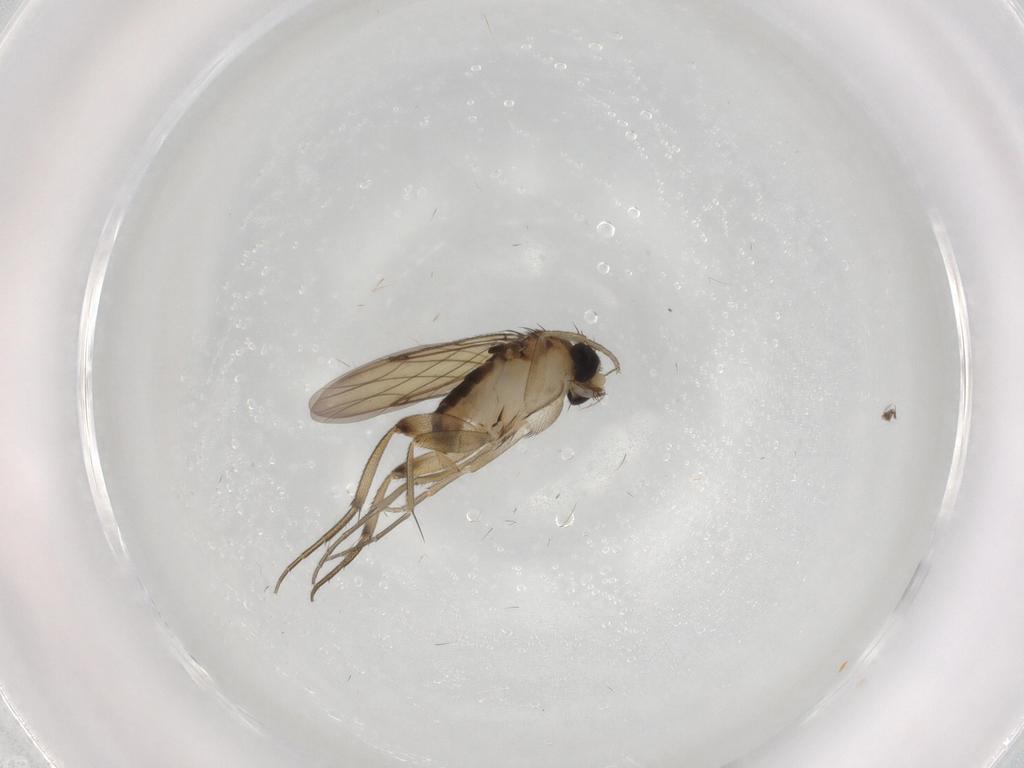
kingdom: Animalia
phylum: Arthropoda
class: Insecta
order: Diptera
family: Phoridae
